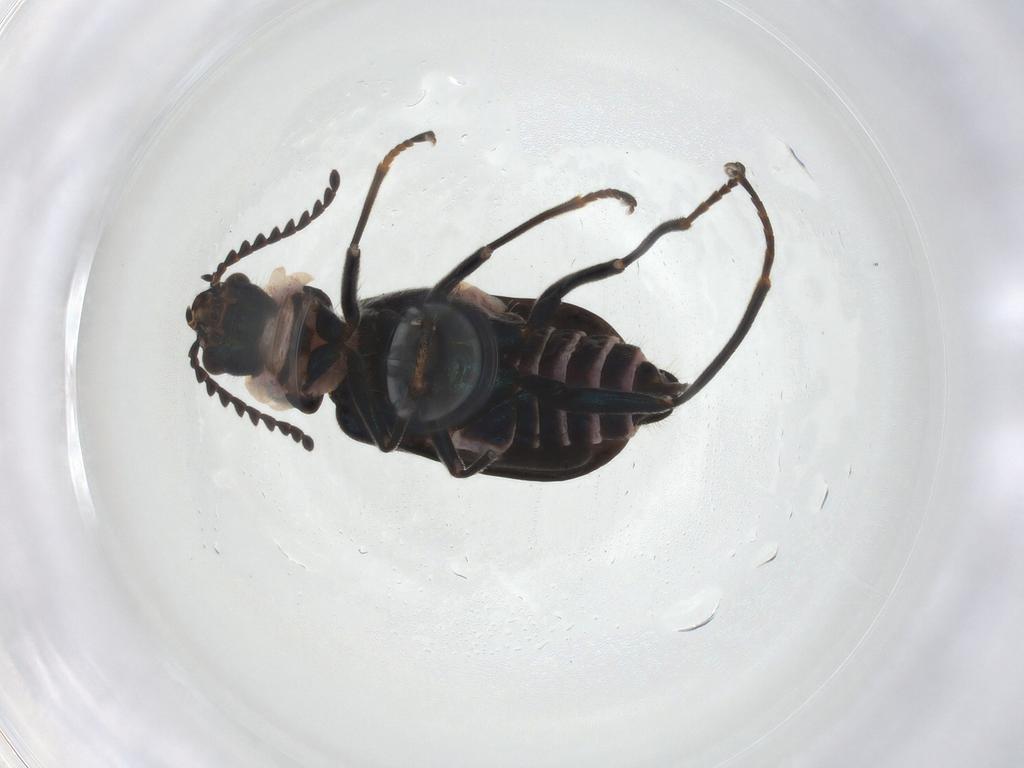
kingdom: Animalia
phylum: Arthropoda
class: Insecta
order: Coleoptera
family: Melyridae
